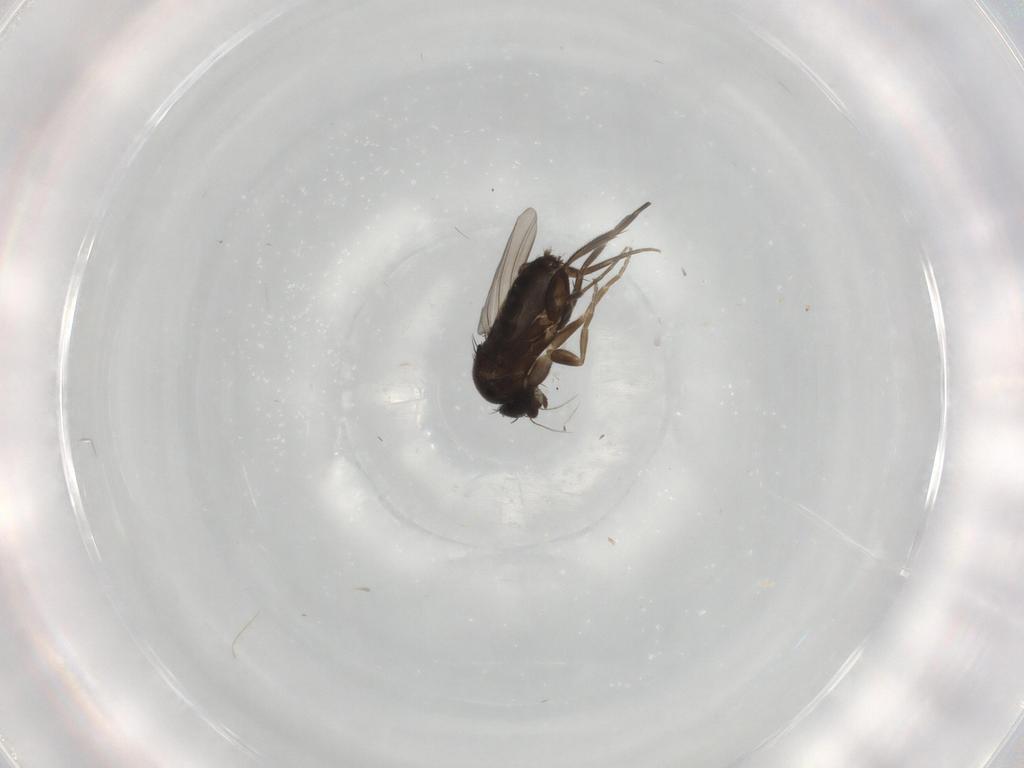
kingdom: Animalia
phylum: Arthropoda
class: Insecta
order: Diptera
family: Phoridae
